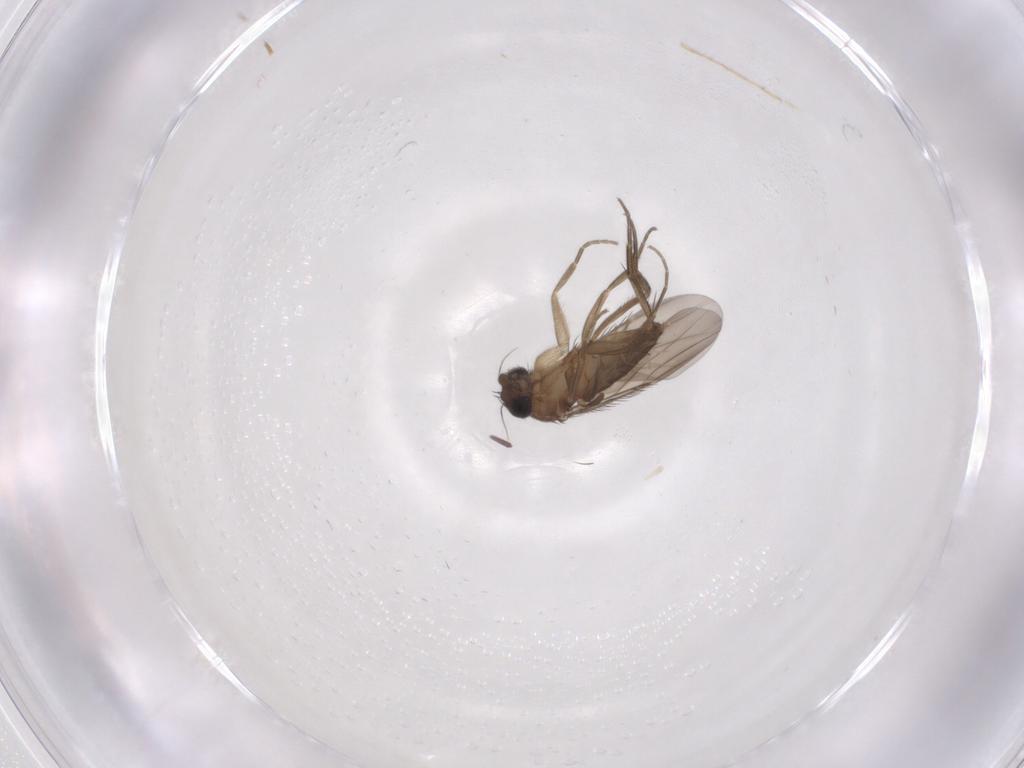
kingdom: Animalia
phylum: Arthropoda
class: Insecta
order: Diptera
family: Phoridae
